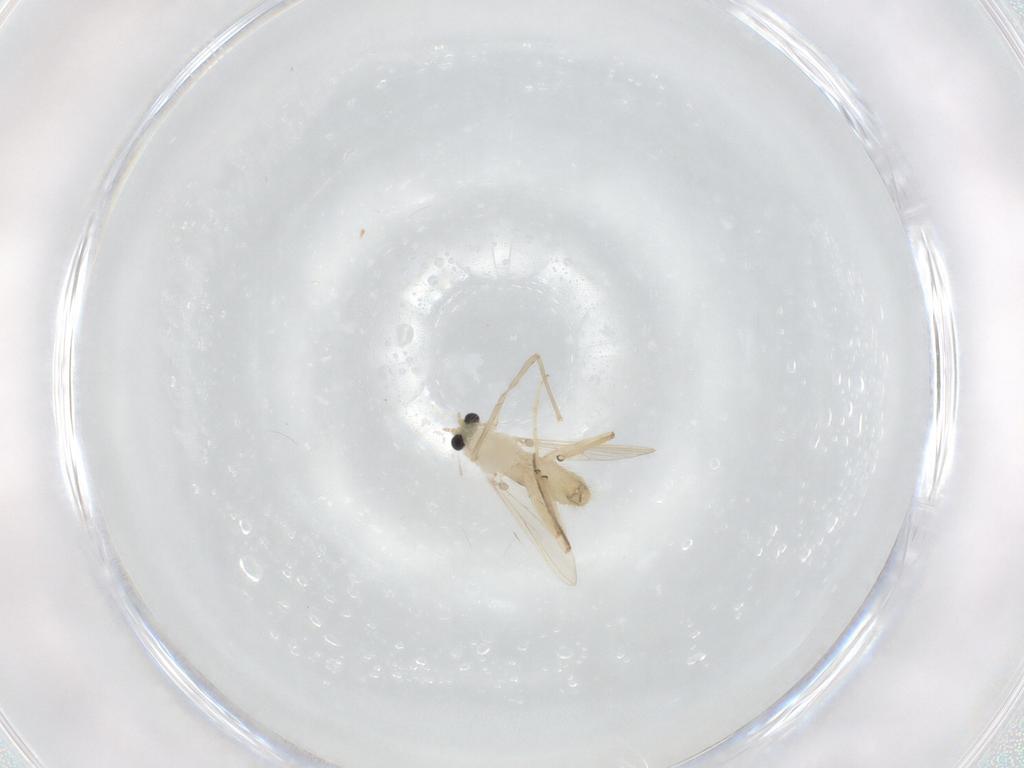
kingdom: Animalia
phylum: Arthropoda
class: Insecta
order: Diptera
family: Chironomidae
